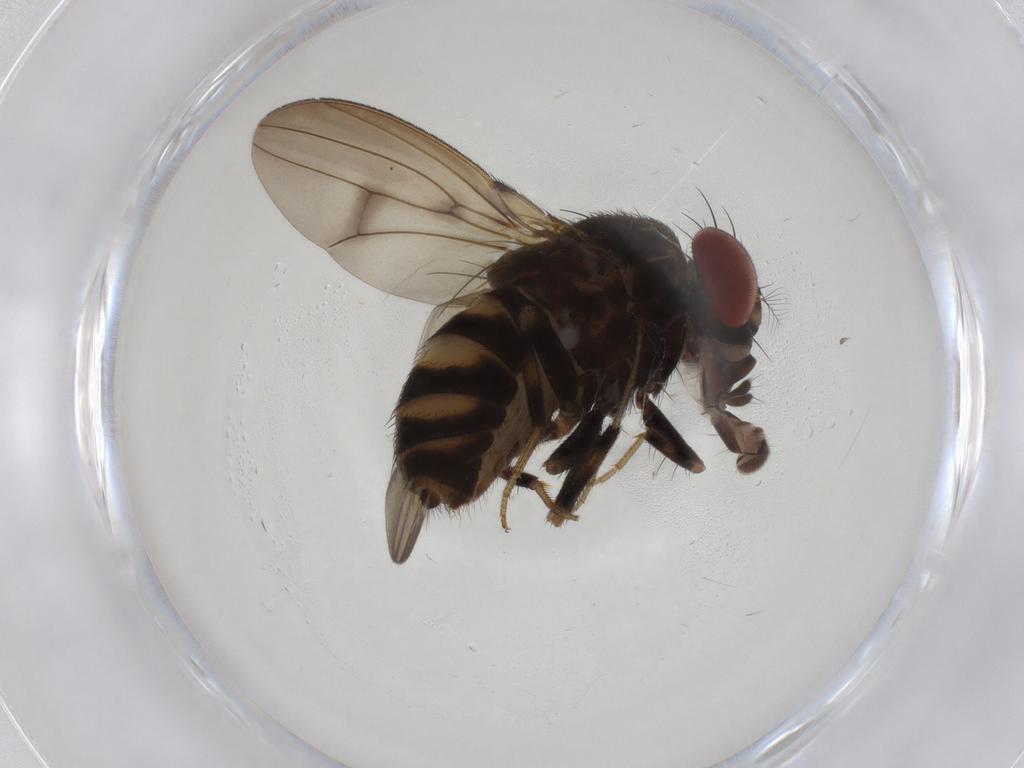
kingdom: Animalia
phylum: Arthropoda
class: Insecta
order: Diptera
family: Drosophilidae
